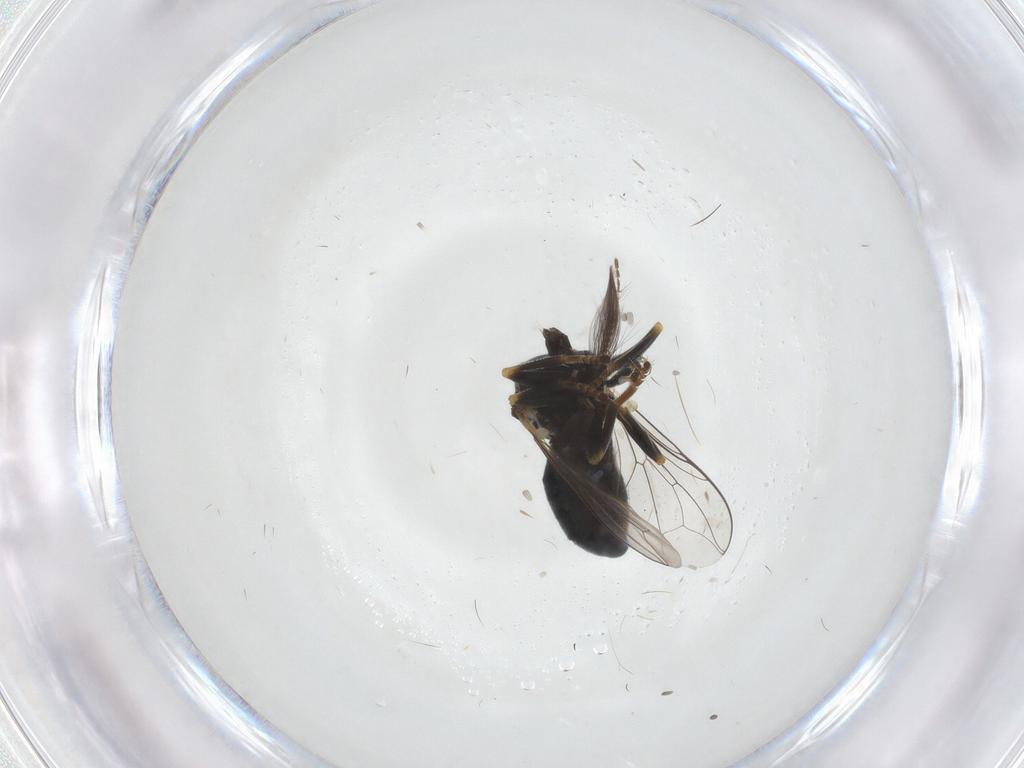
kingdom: Animalia
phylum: Arthropoda
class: Insecta
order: Diptera
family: Pipunculidae
